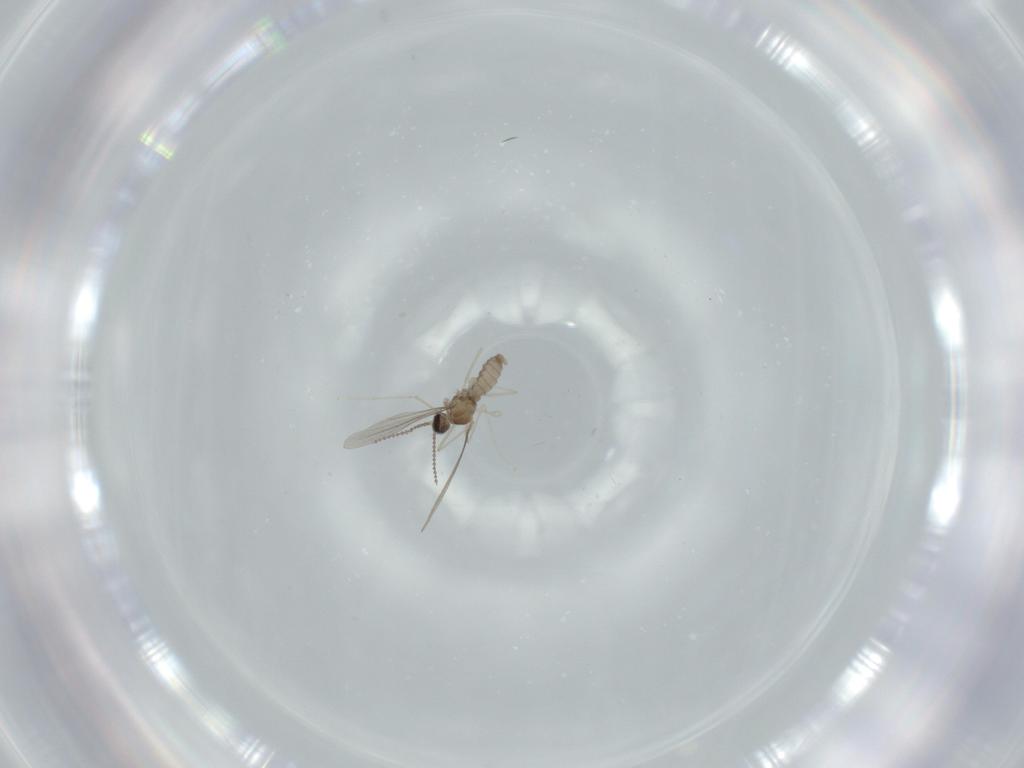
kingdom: Animalia
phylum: Arthropoda
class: Insecta
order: Diptera
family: Cecidomyiidae
